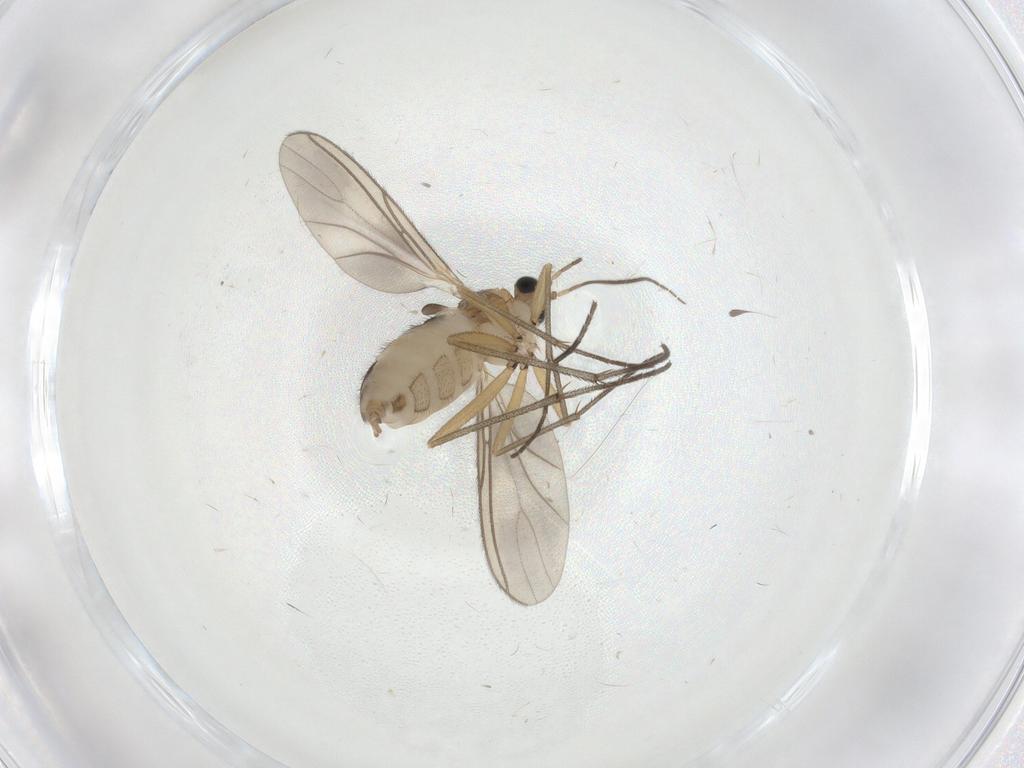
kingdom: Animalia
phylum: Arthropoda
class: Insecta
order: Diptera
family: Sciaridae
